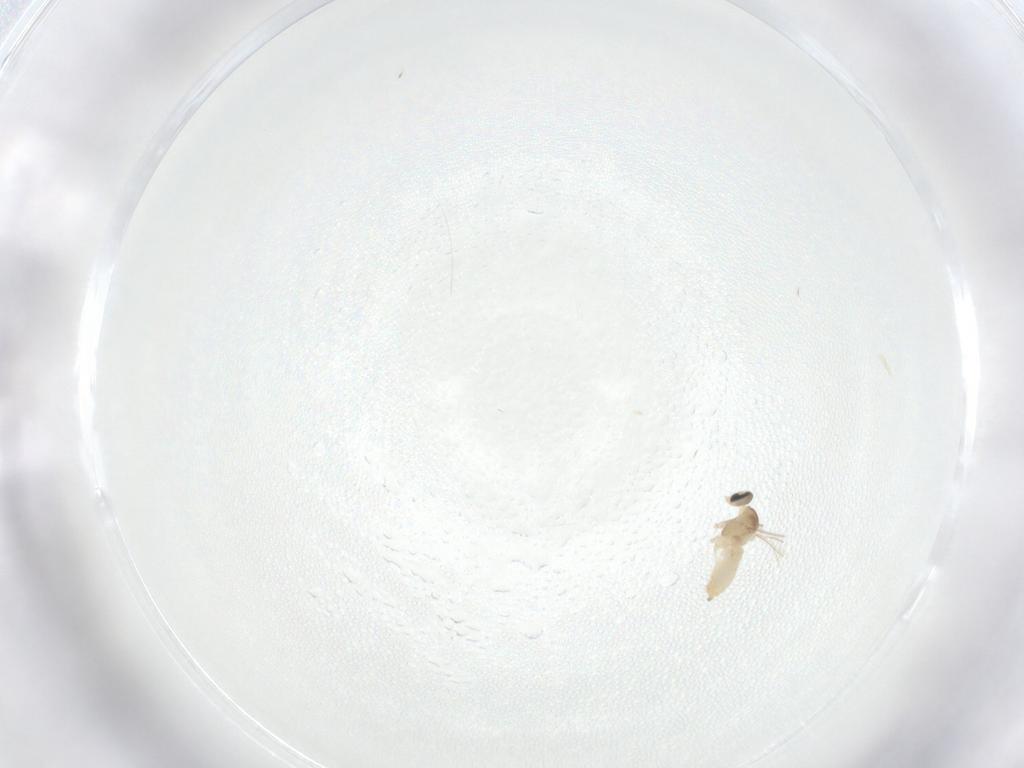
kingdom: Animalia
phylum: Arthropoda
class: Insecta
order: Diptera
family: Cecidomyiidae
